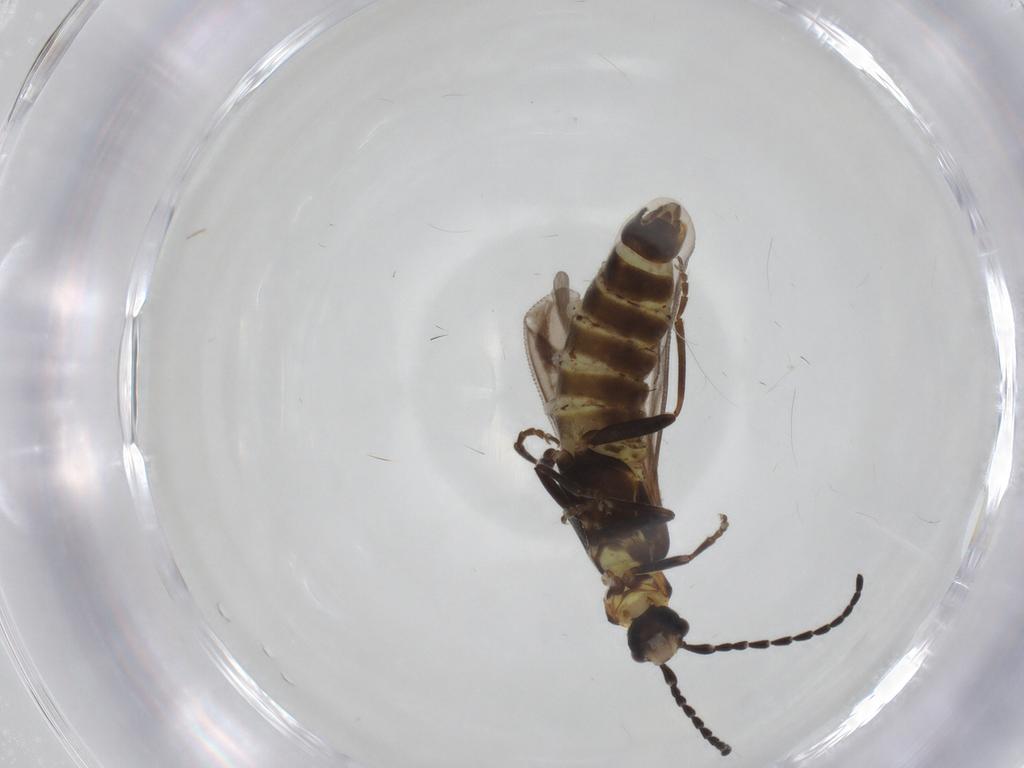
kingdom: Animalia
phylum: Arthropoda
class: Insecta
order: Coleoptera
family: Cantharidae
